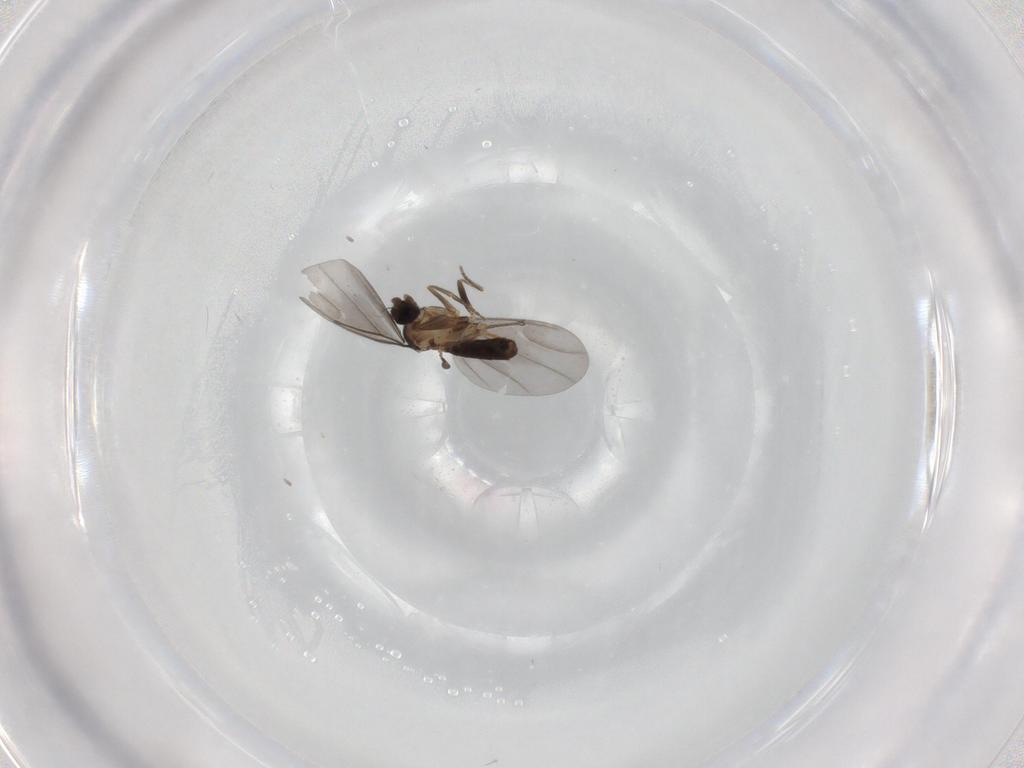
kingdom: Animalia
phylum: Arthropoda
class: Insecta
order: Diptera
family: Phoridae
